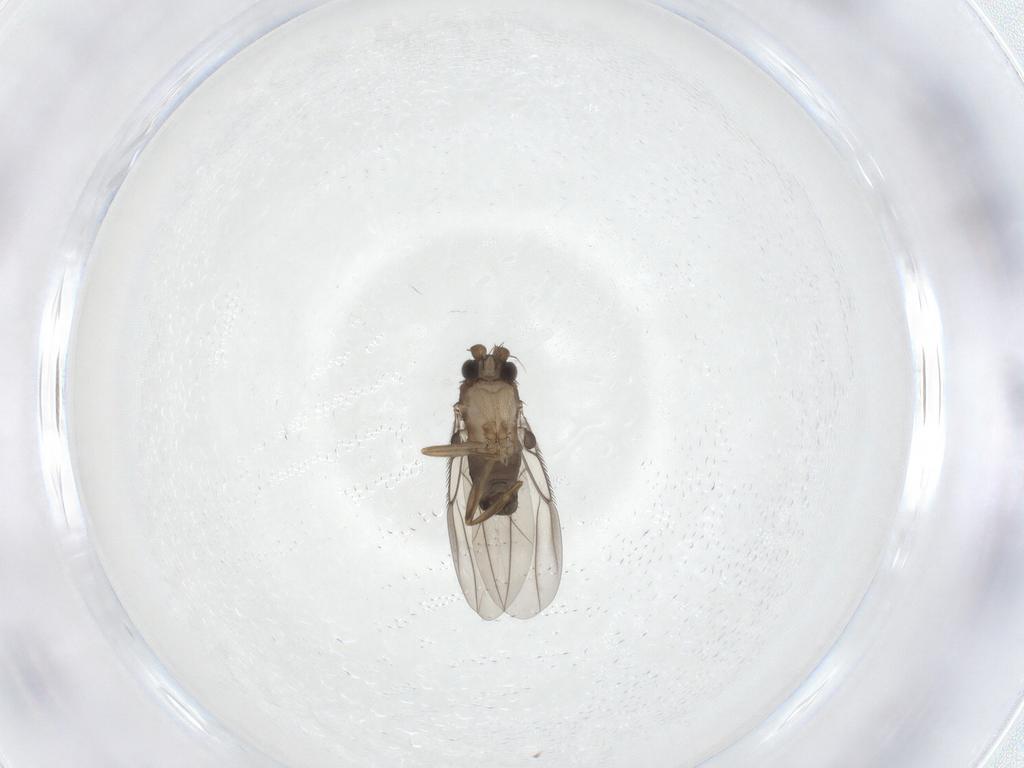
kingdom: Animalia
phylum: Arthropoda
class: Insecta
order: Diptera
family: Phoridae
